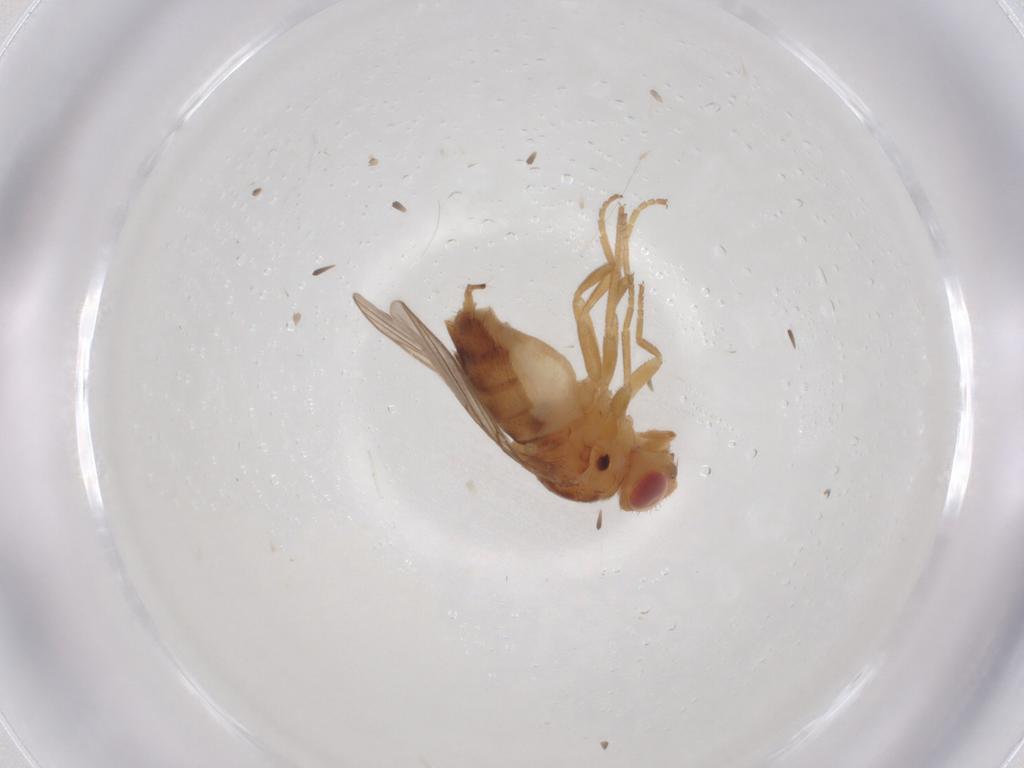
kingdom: Animalia
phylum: Arthropoda
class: Insecta
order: Diptera
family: Chloropidae
